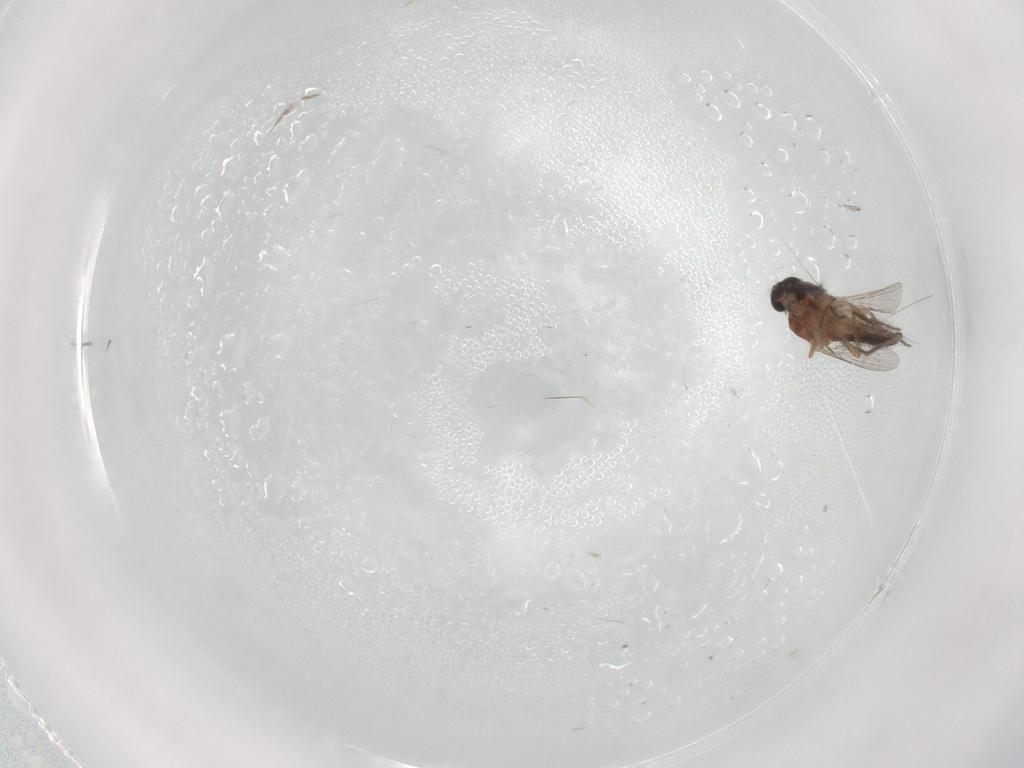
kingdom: Animalia
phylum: Arthropoda
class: Insecta
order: Diptera
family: Ceratopogonidae
